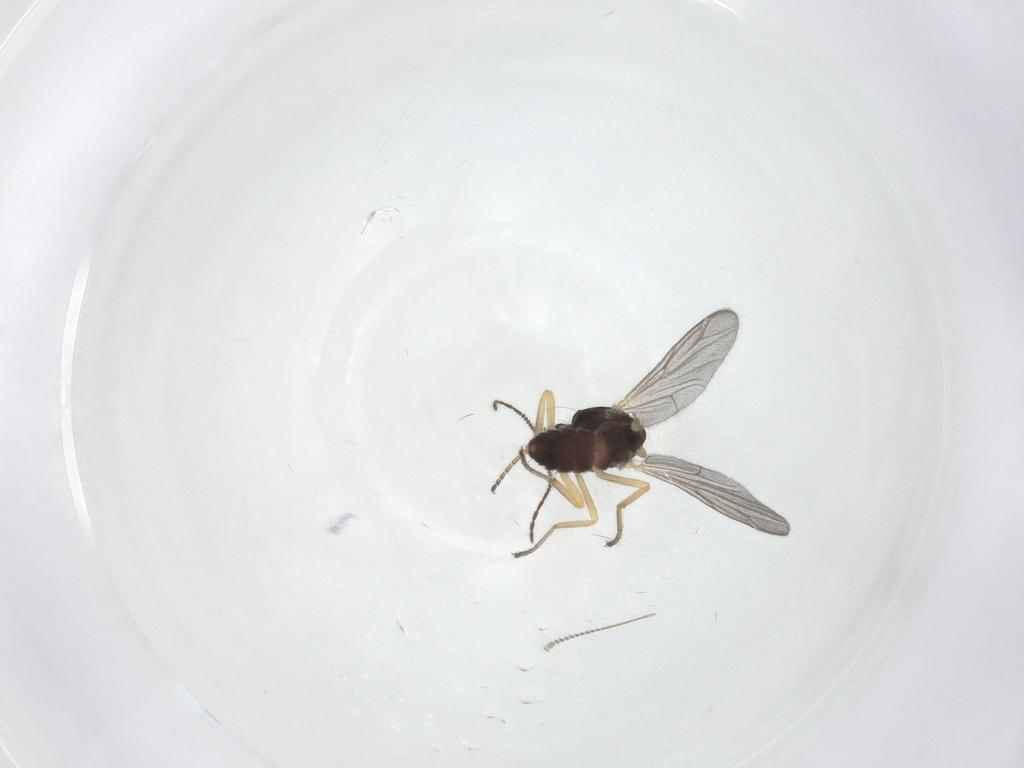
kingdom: Animalia
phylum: Arthropoda
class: Insecta
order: Diptera
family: Ceratopogonidae
